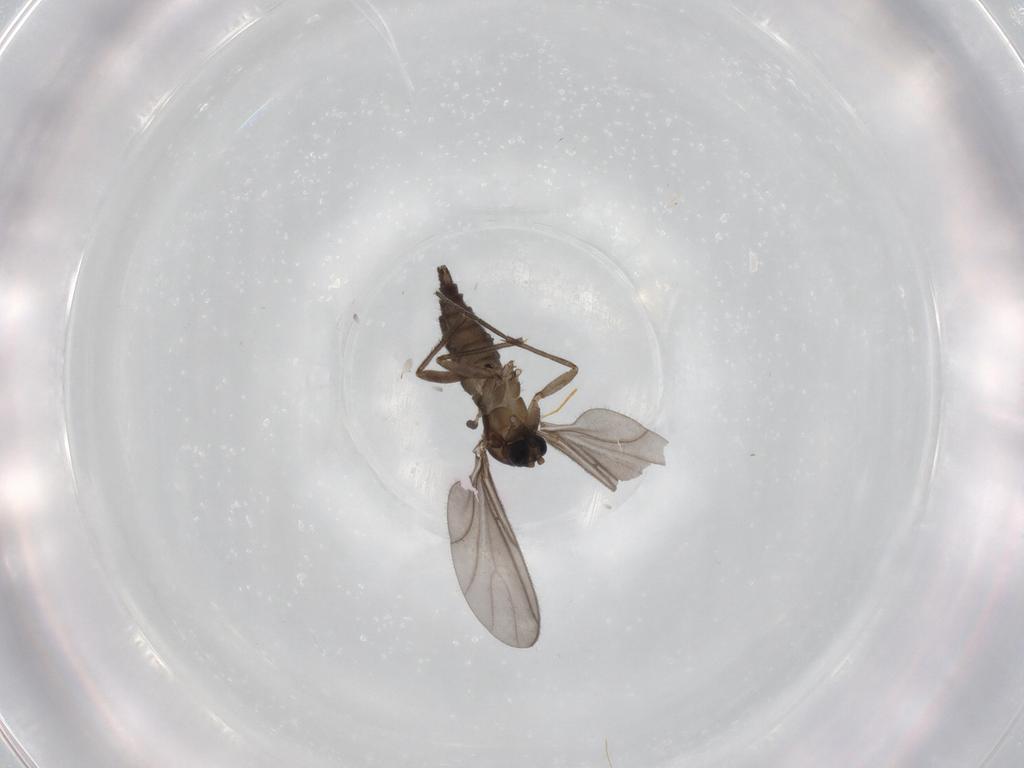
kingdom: Animalia
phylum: Arthropoda
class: Insecta
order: Diptera
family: Sciaridae
